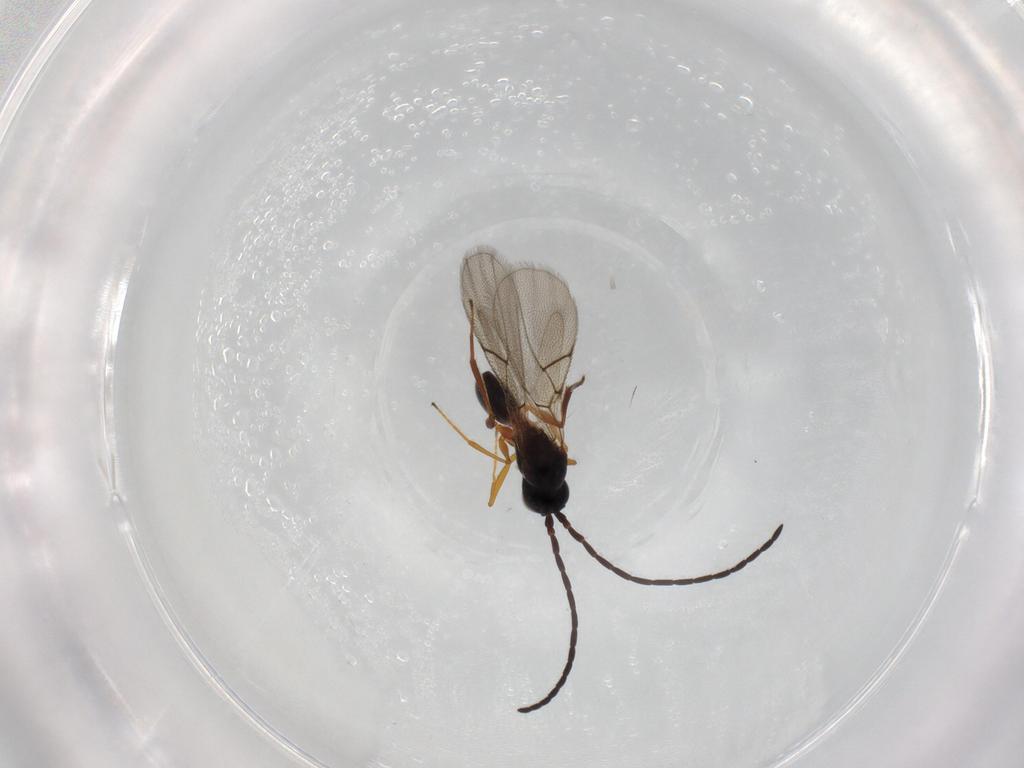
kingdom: Animalia
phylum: Arthropoda
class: Insecta
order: Hymenoptera
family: Figitidae
